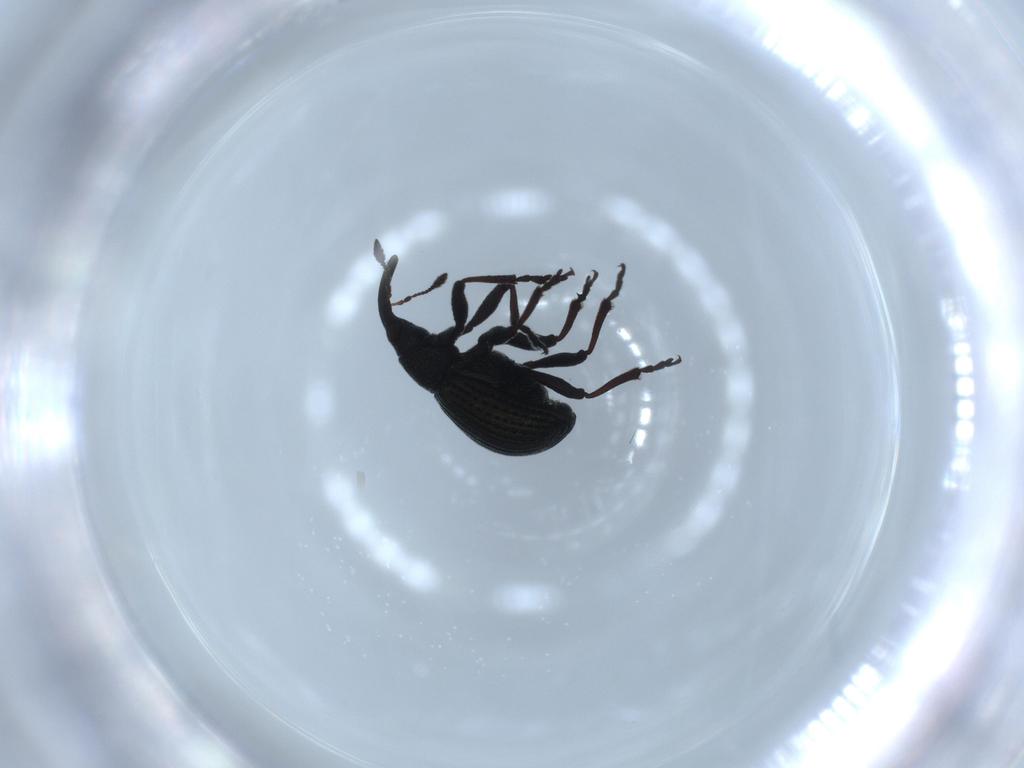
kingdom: Animalia
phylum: Arthropoda
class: Insecta
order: Coleoptera
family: Brentidae
